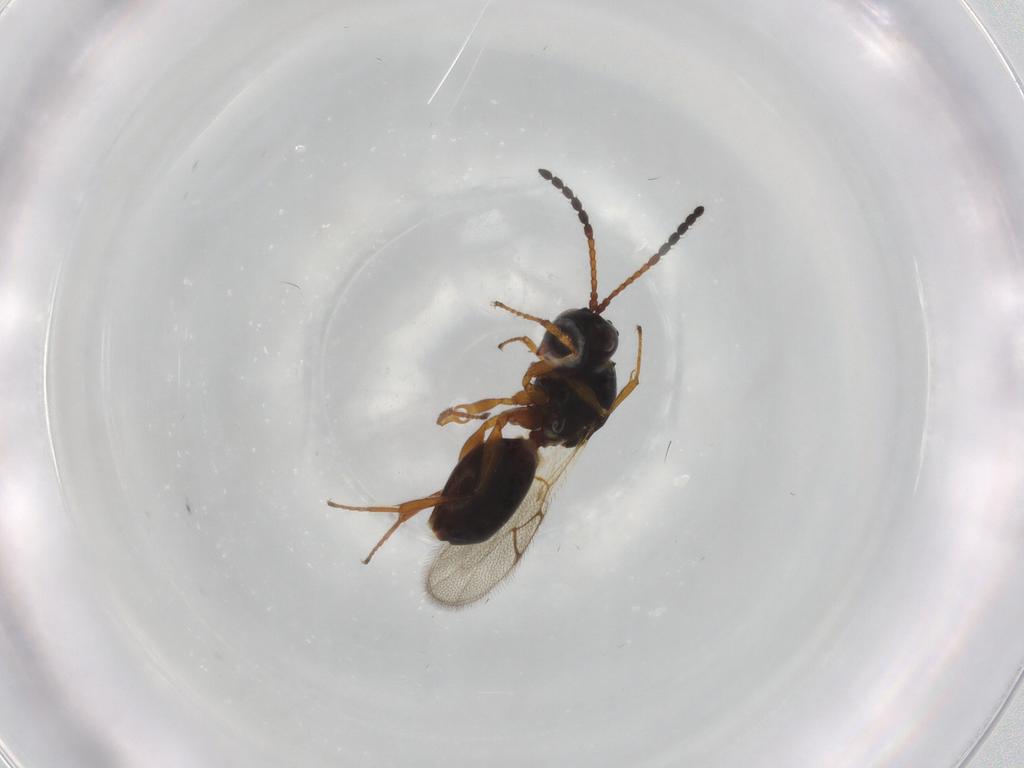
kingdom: Animalia
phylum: Arthropoda
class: Insecta
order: Hymenoptera
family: Figitidae
